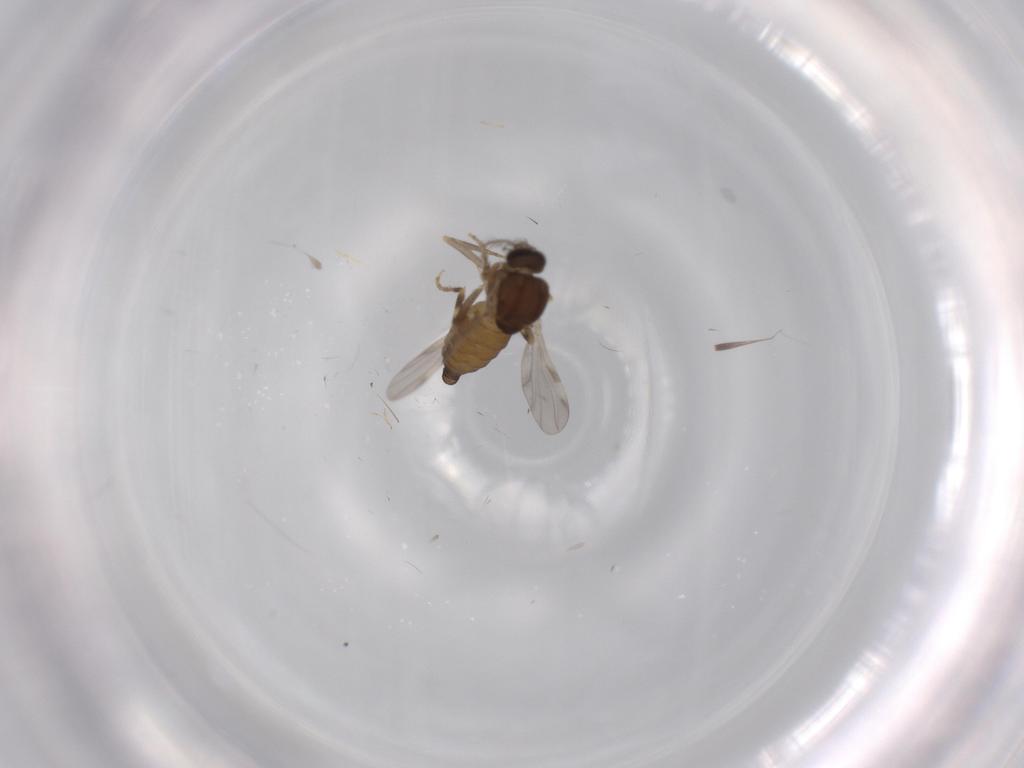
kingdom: Animalia
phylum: Arthropoda
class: Insecta
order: Diptera
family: Ceratopogonidae
